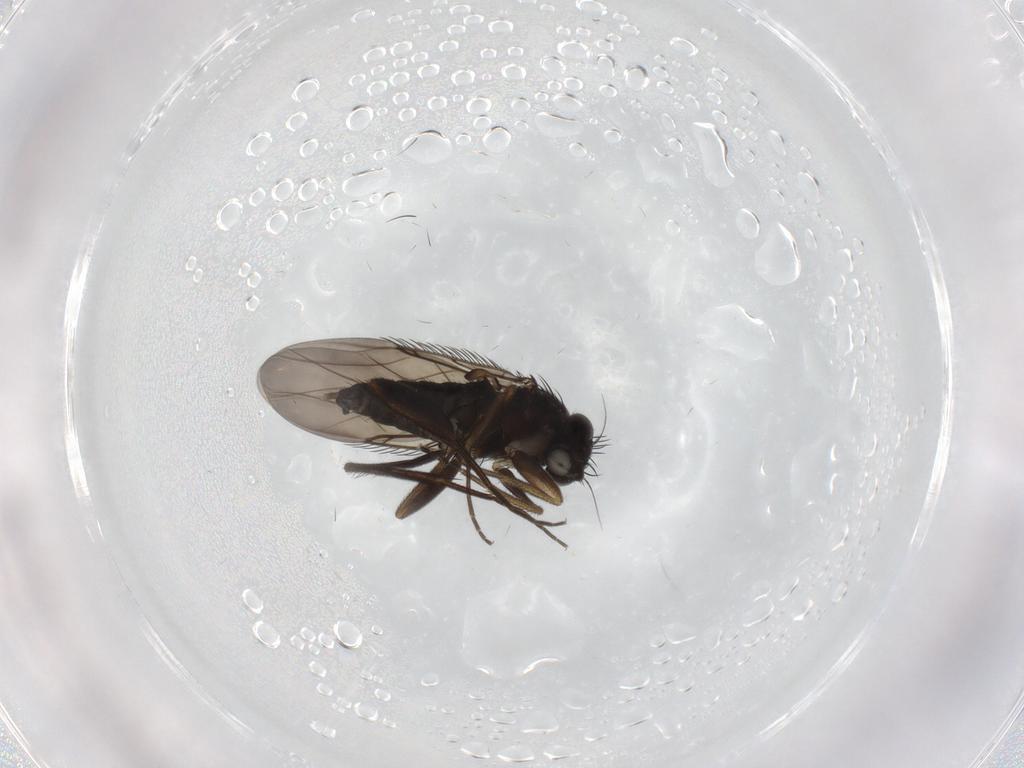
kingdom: Animalia
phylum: Arthropoda
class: Insecta
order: Diptera
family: Phoridae
